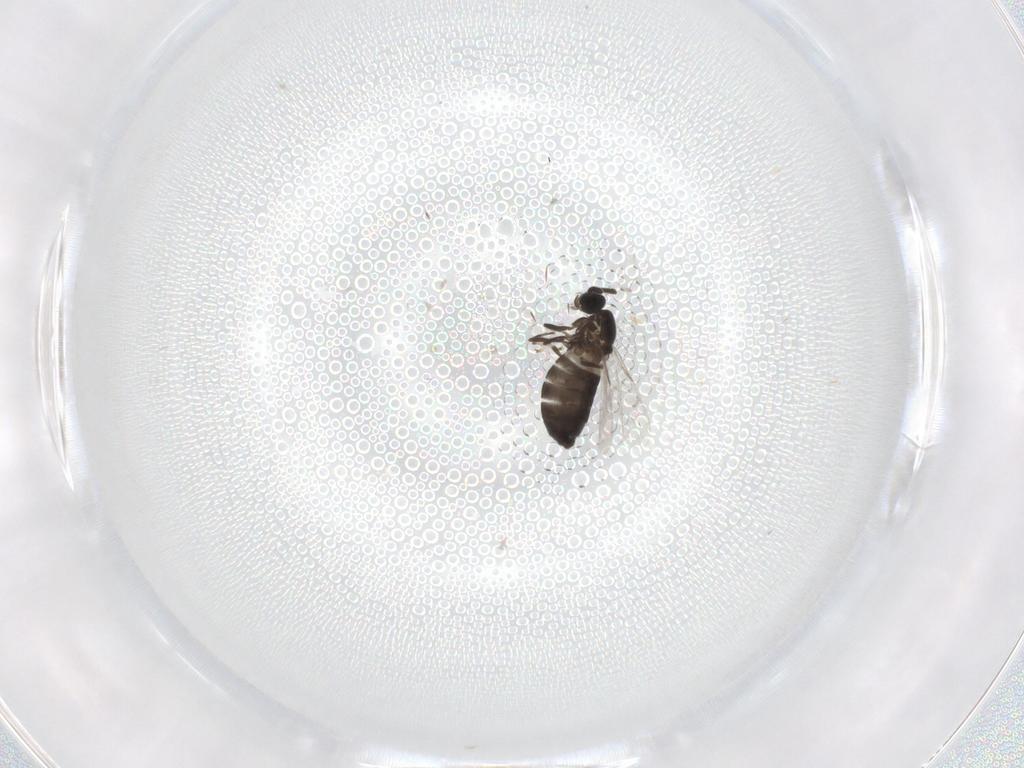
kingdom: Animalia
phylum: Arthropoda
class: Insecta
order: Diptera
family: Scatopsidae
